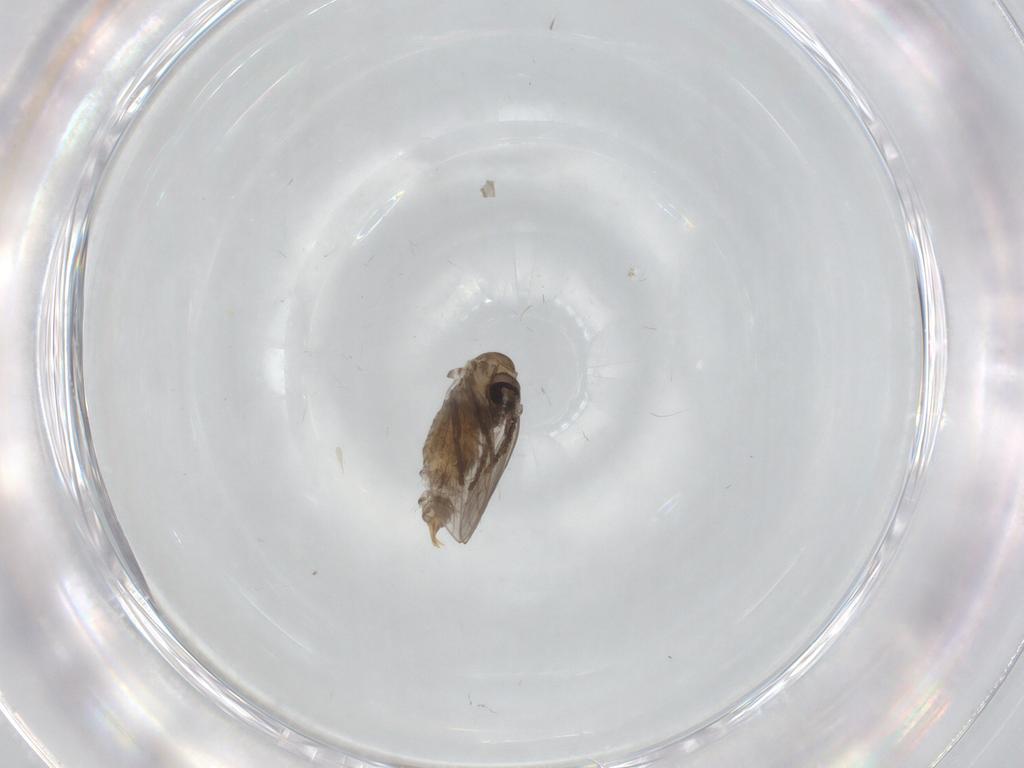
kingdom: Animalia
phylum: Arthropoda
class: Insecta
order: Diptera
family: Psychodidae
